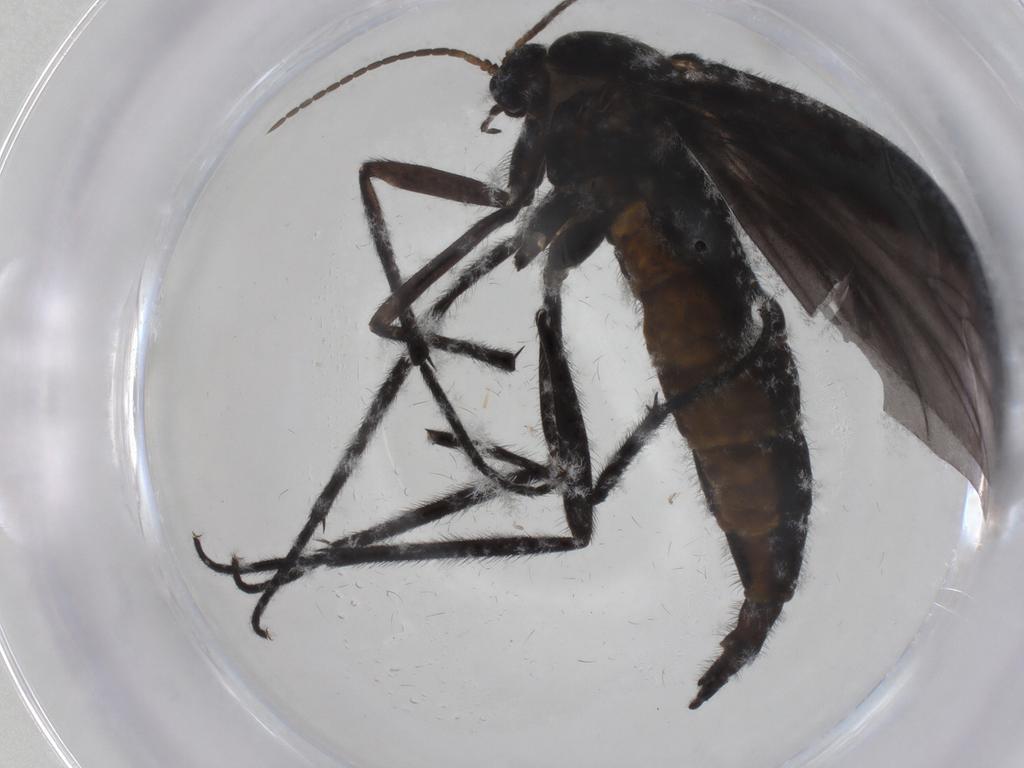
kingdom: Animalia
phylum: Arthropoda
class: Insecta
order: Diptera
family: Sciaridae
